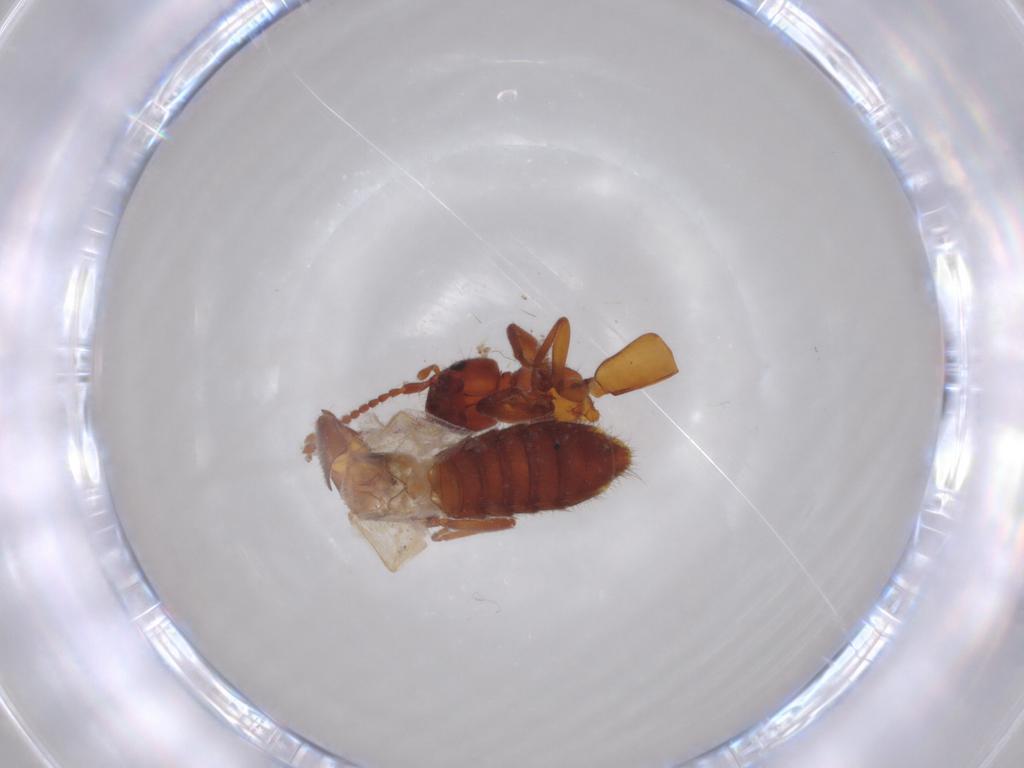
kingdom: Animalia
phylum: Arthropoda
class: Insecta
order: Coleoptera
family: Staphylinidae
